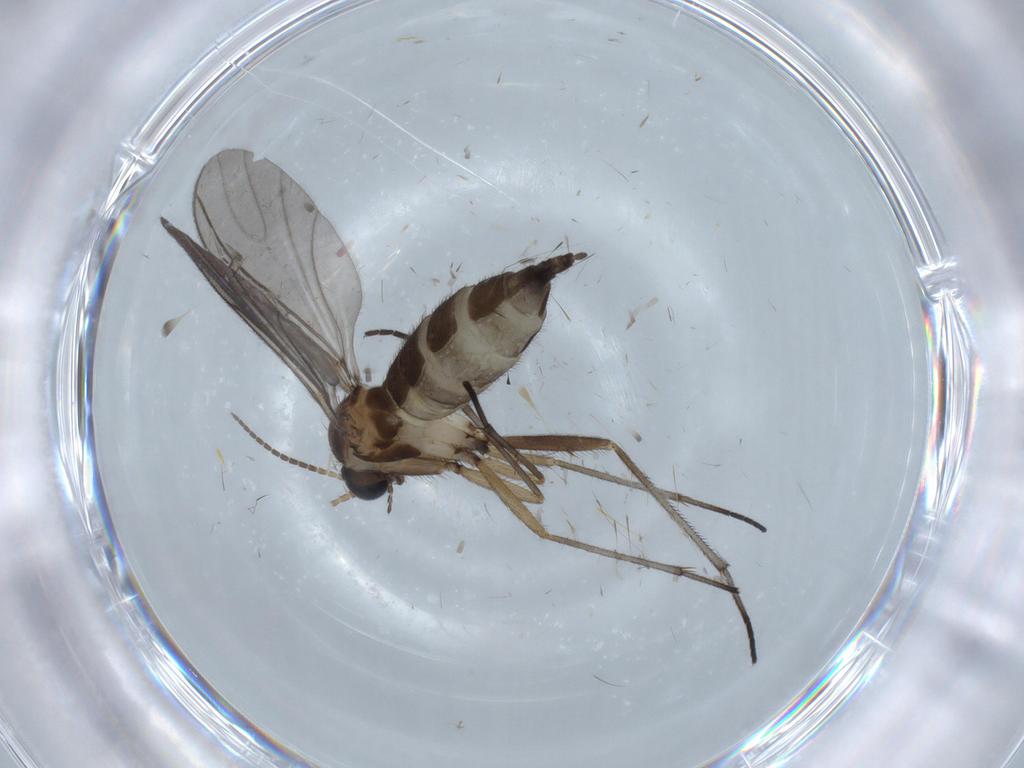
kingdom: Animalia
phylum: Arthropoda
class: Insecta
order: Diptera
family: Sciaridae
